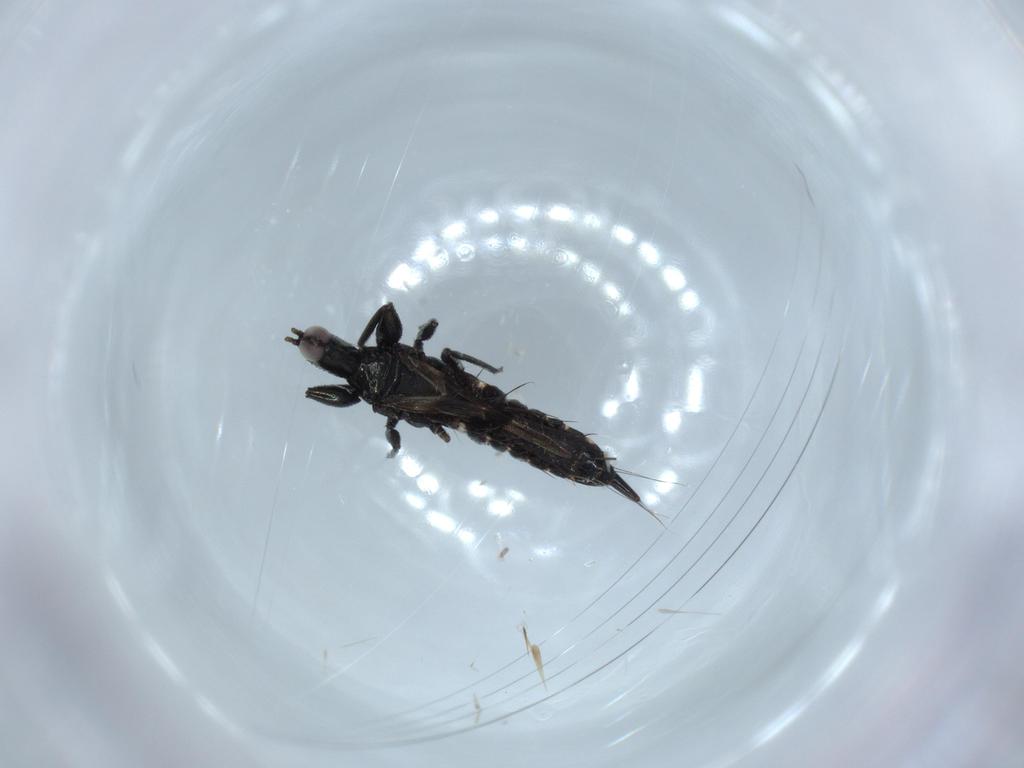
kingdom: Animalia
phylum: Arthropoda
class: Insecta
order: Thysanoptera
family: Phlaeothripidae
